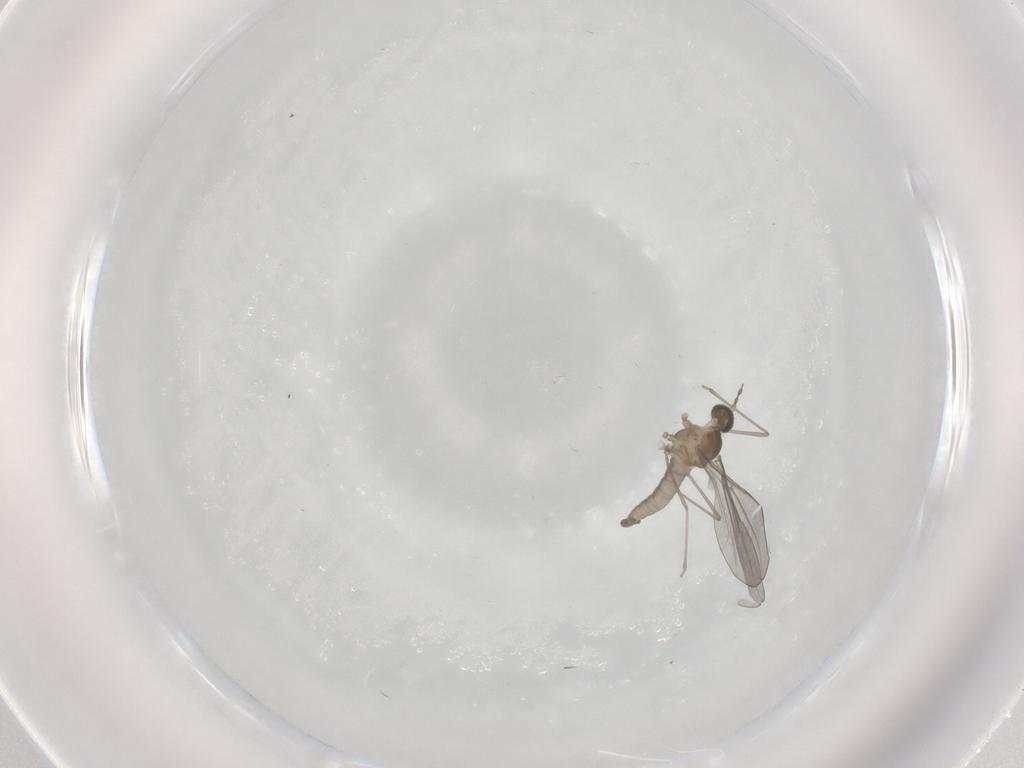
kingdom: Animalia
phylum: Arthropoda
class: Insecta
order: Diptera
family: Cecidomyiidae
